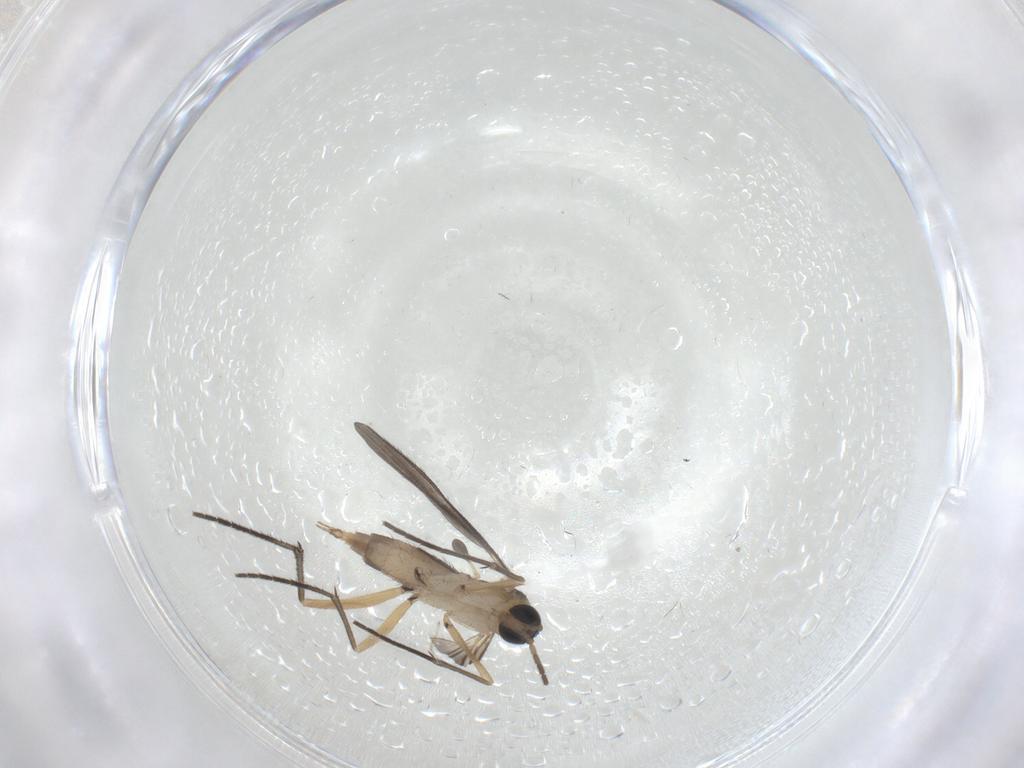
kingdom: Animalia
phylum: Arthropoda
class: Insecta
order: Diptera
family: Sciaridae
